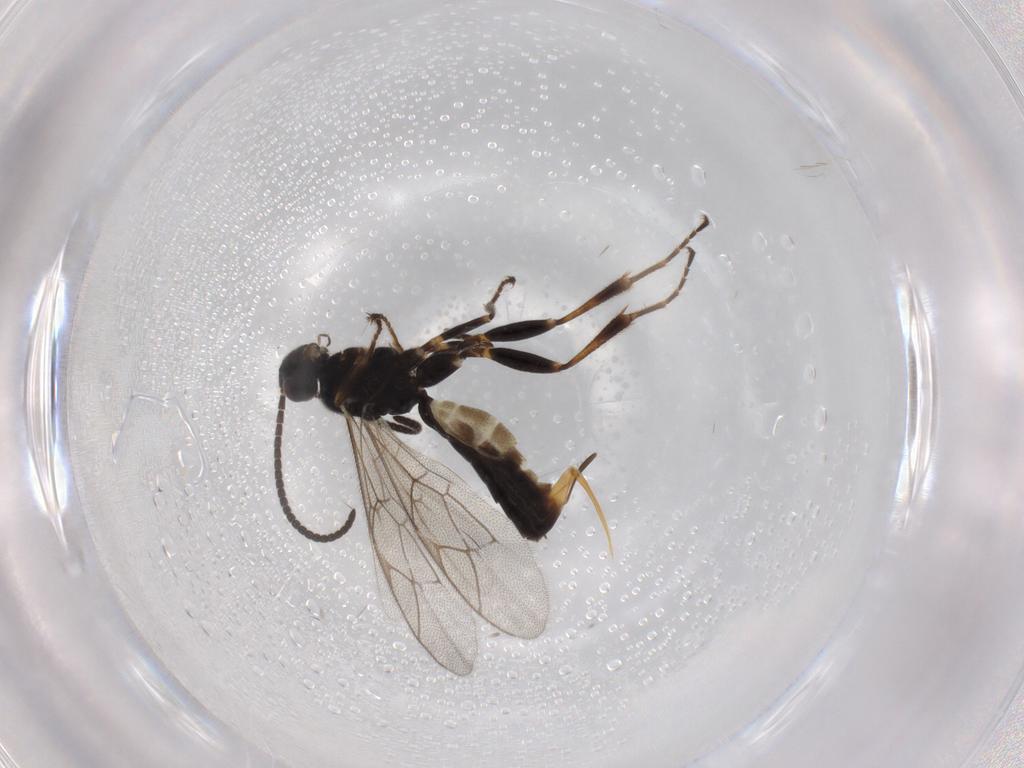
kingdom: Animalia
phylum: Arthropoda
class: Insecta
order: Hymenoptera
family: Ichneumonidae
